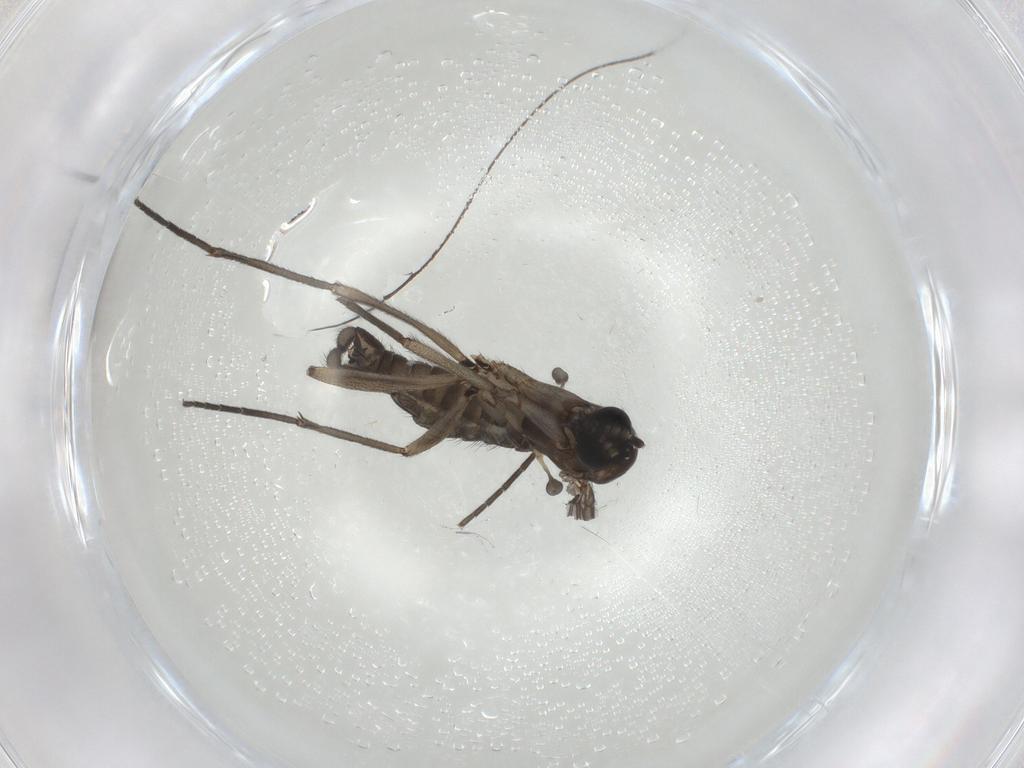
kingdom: Animalia
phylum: Arthropoda
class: Insecta
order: Diptera
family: Sciaridae
